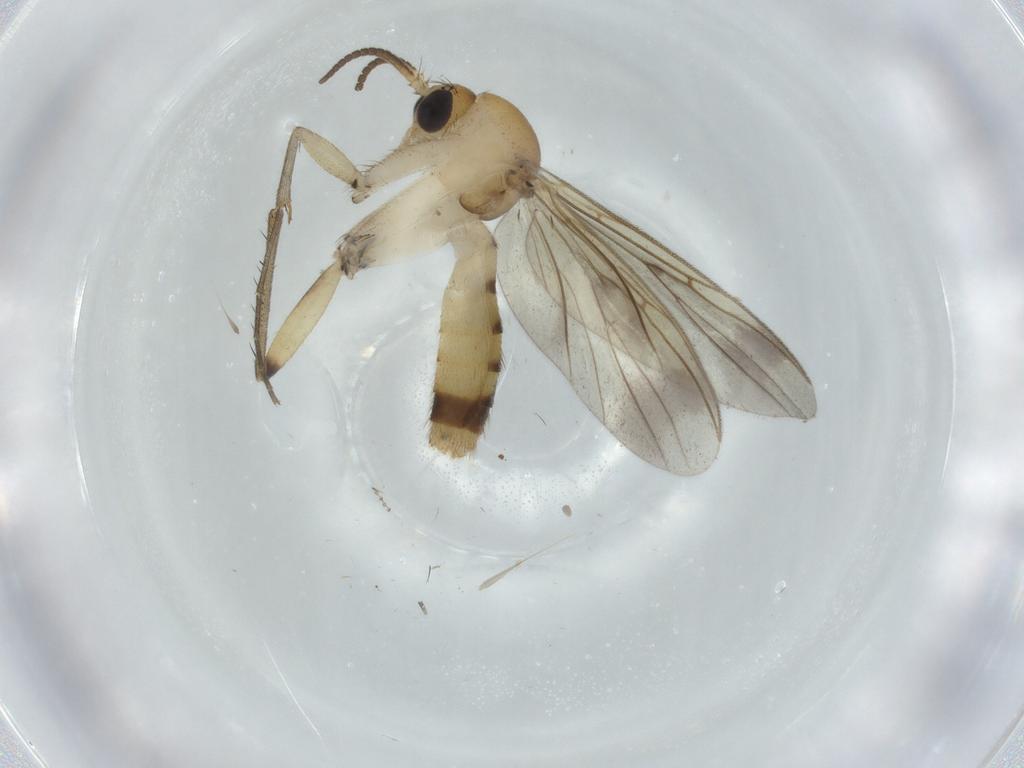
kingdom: Animalia
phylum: Arthropoda
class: Insecta
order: Diptera
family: Mycetophilidae
